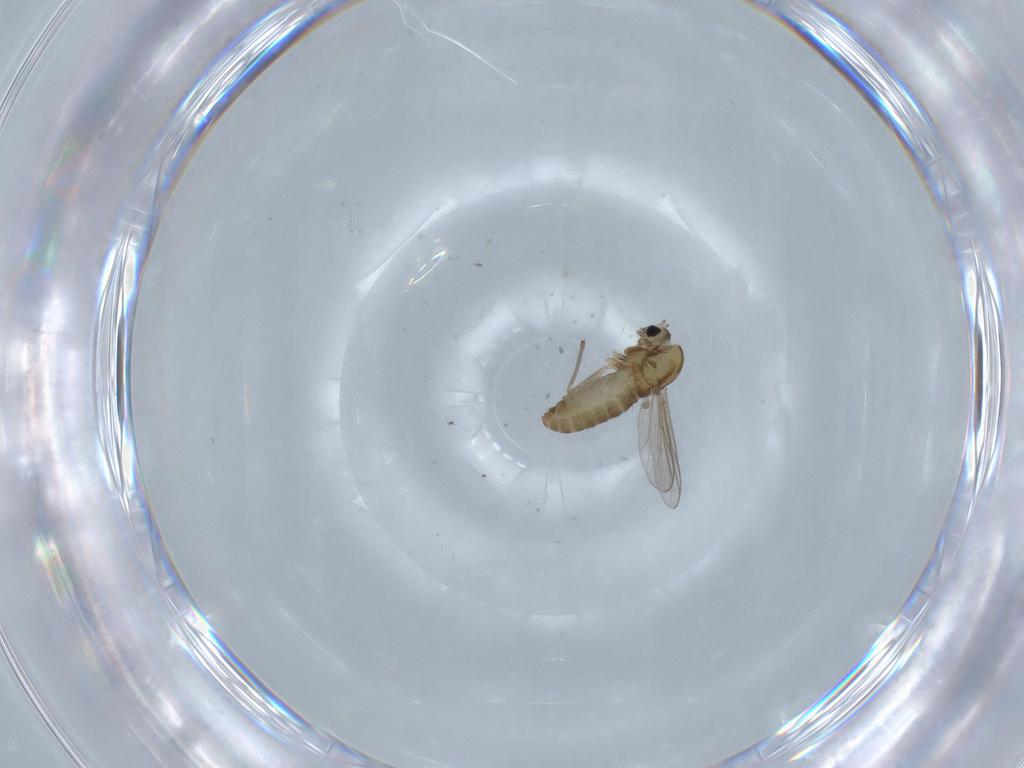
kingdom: Animalia
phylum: Arthropoda
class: Insecta
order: Diptera
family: Chironomidae
